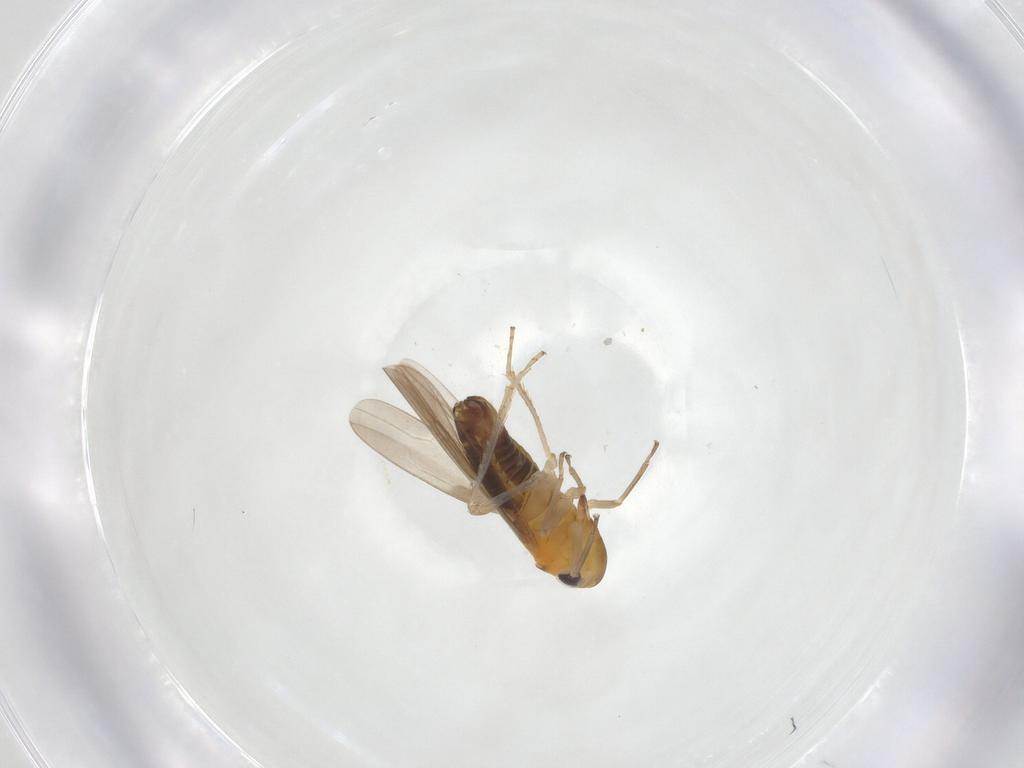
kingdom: Animalia
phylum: Arthropoda
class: Insecta
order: Hemiptera
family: Cicadellidae
